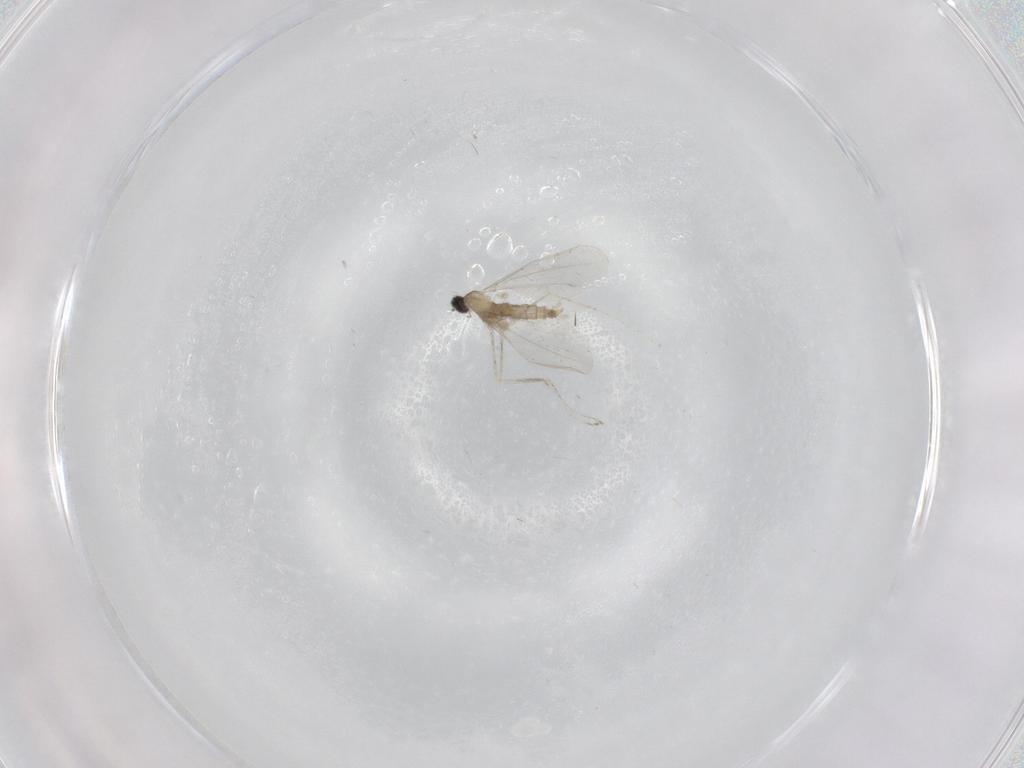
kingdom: Animalia
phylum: Arthropoda
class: Insecta
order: Diptera
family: Cecidomyiidae
